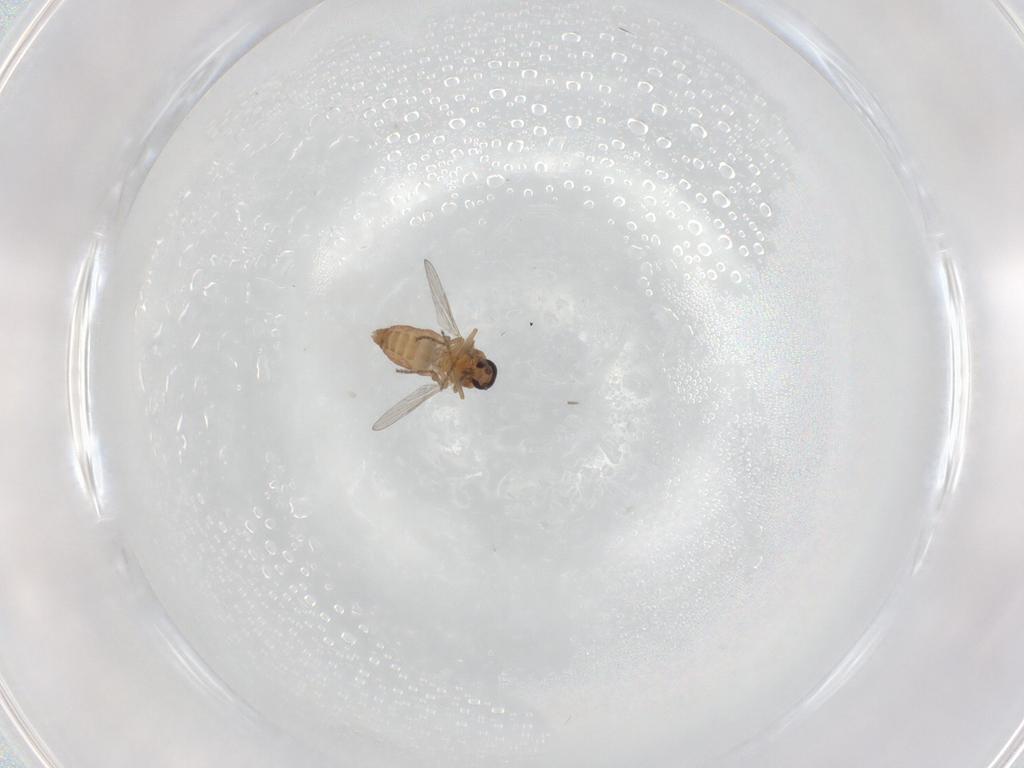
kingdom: Animalia
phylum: Arthropoda
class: Insecta
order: Diptera
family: Ceratopogonidae
